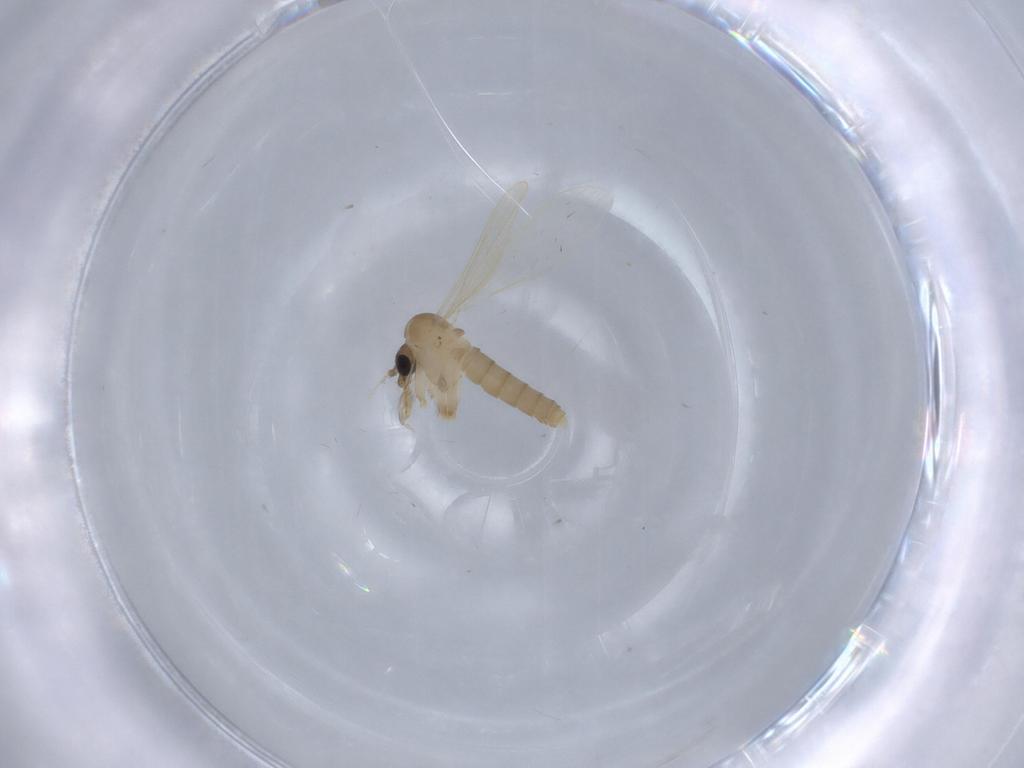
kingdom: Animalia
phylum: Arthropoda
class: Insecta
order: Diptera
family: Psychodidae
